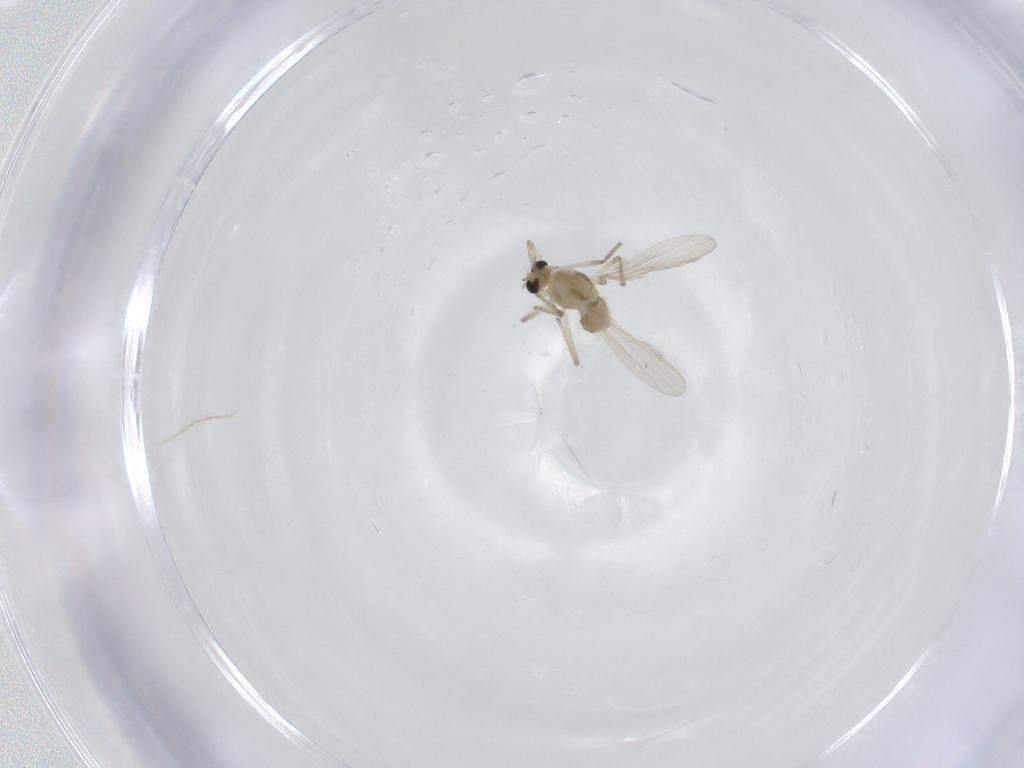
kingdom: Animalia
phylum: Arthropoda
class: Insecta
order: Diptera
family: Chironomidae
